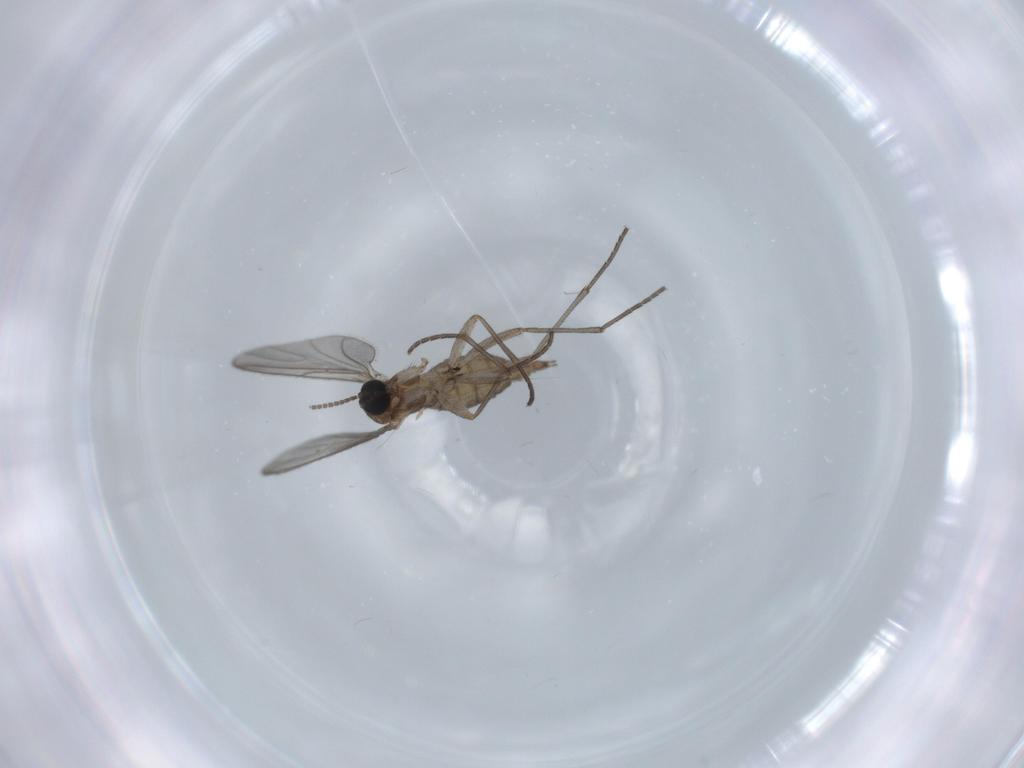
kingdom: Animalia
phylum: Arthropoda
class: Insecta
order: Diptera
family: Sciaridae
